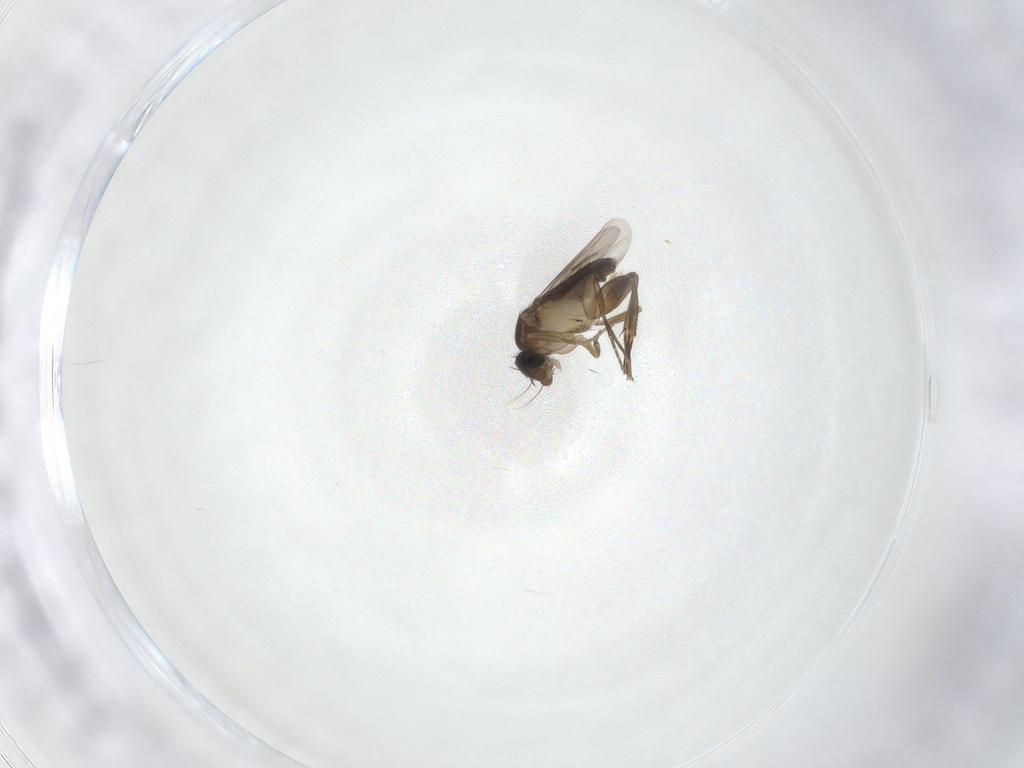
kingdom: Animalia
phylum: Arthropoda
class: Insecta
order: Diptera
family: Phoridae
